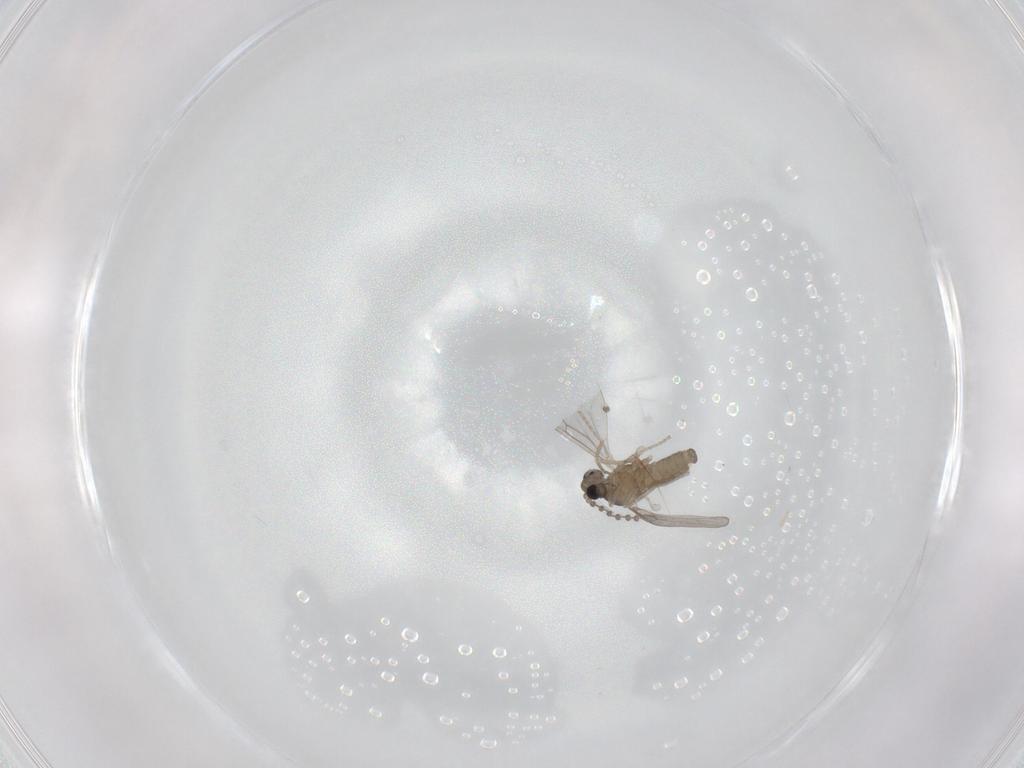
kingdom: Animalia
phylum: Arthropoda
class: Insecta
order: Diptera
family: Cecidomyiidae
